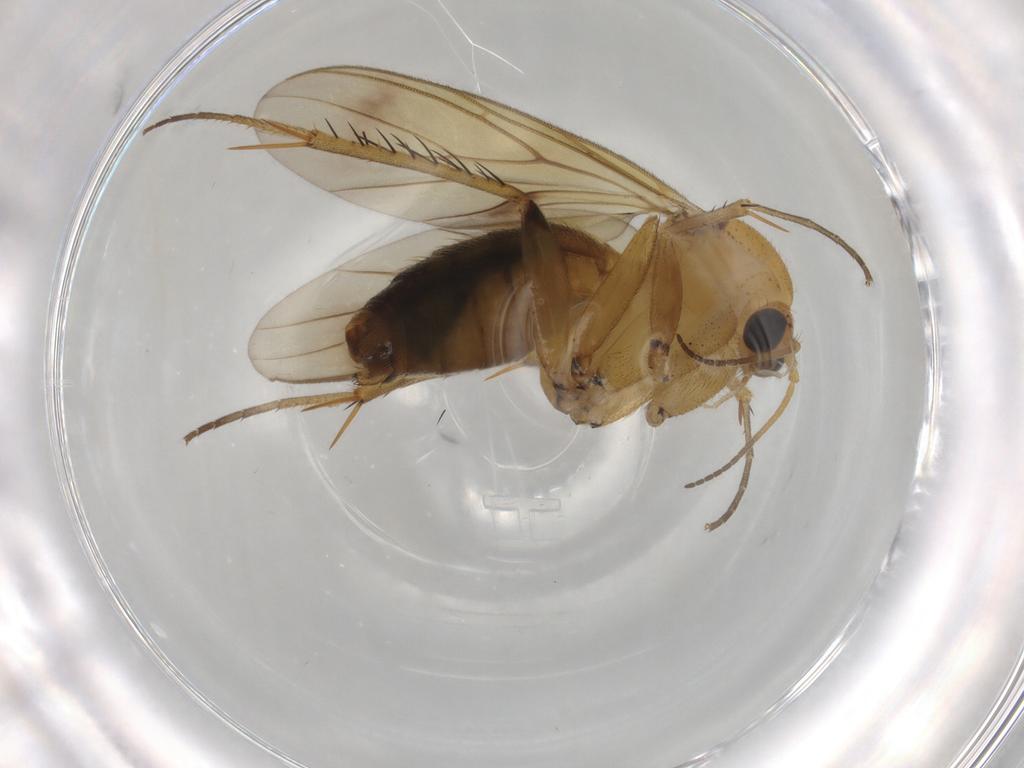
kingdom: Animalia
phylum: Arthropoda
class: Insecta
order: Diptera
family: Mycetophilidae
